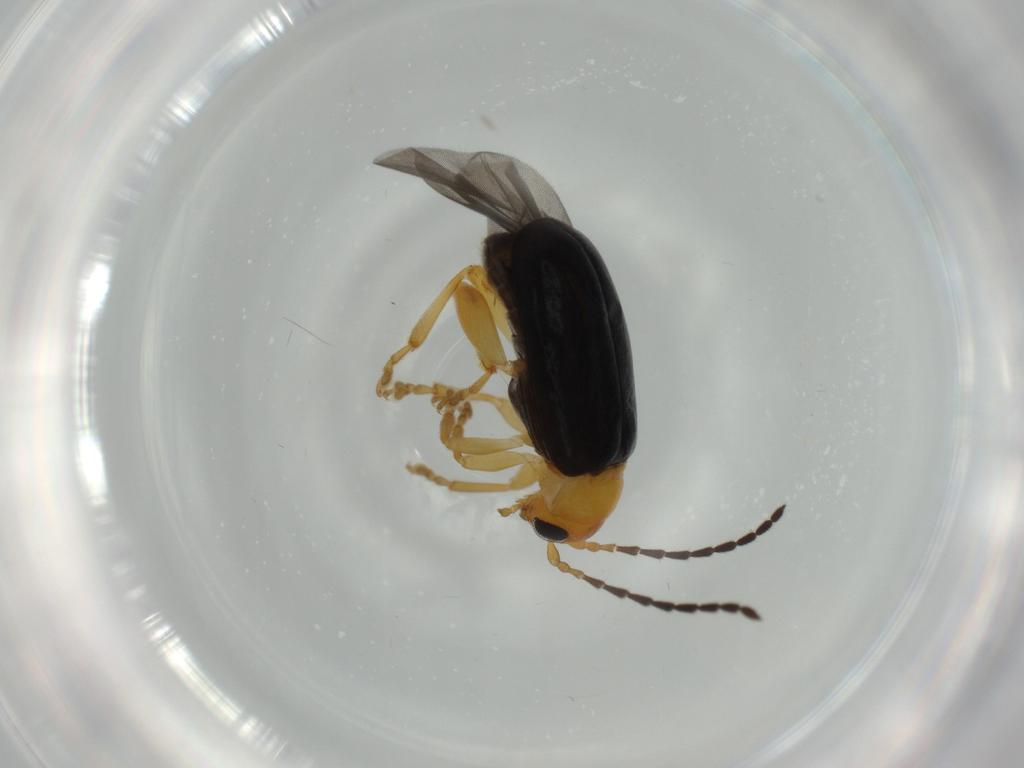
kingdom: Animalia
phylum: Arthropoda
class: Insecta
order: Coleoptera
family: Chrysomelidae
